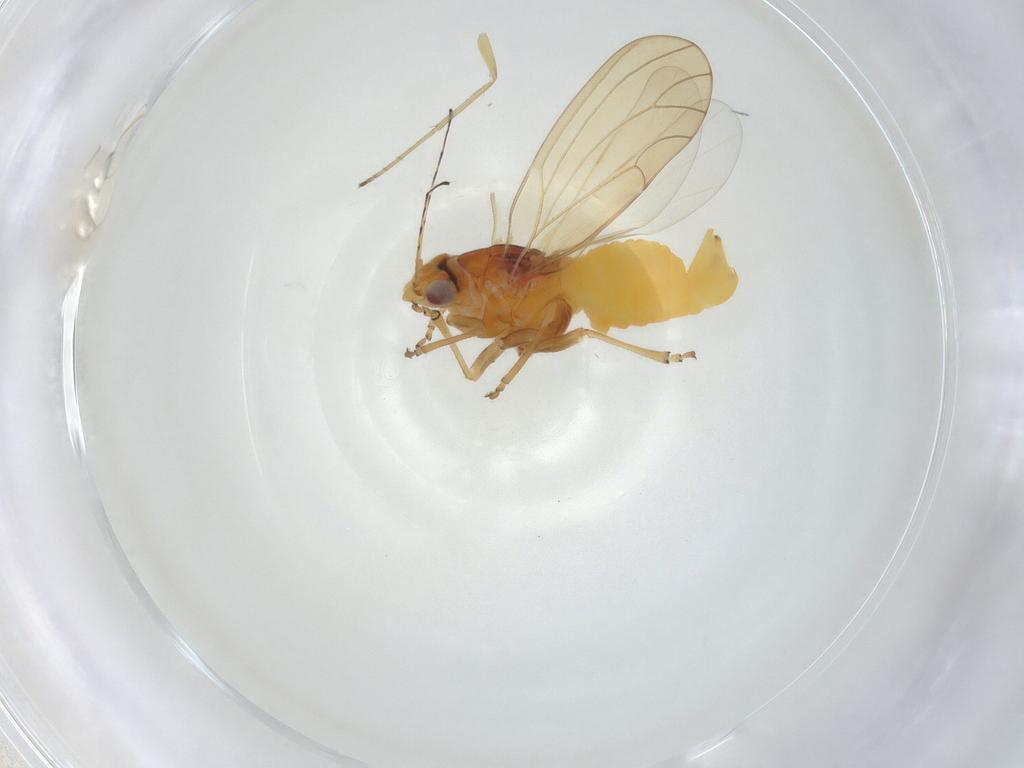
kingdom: Animalia
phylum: Arthropoda
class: Insecta
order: Diptera
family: Dolichopodidae
